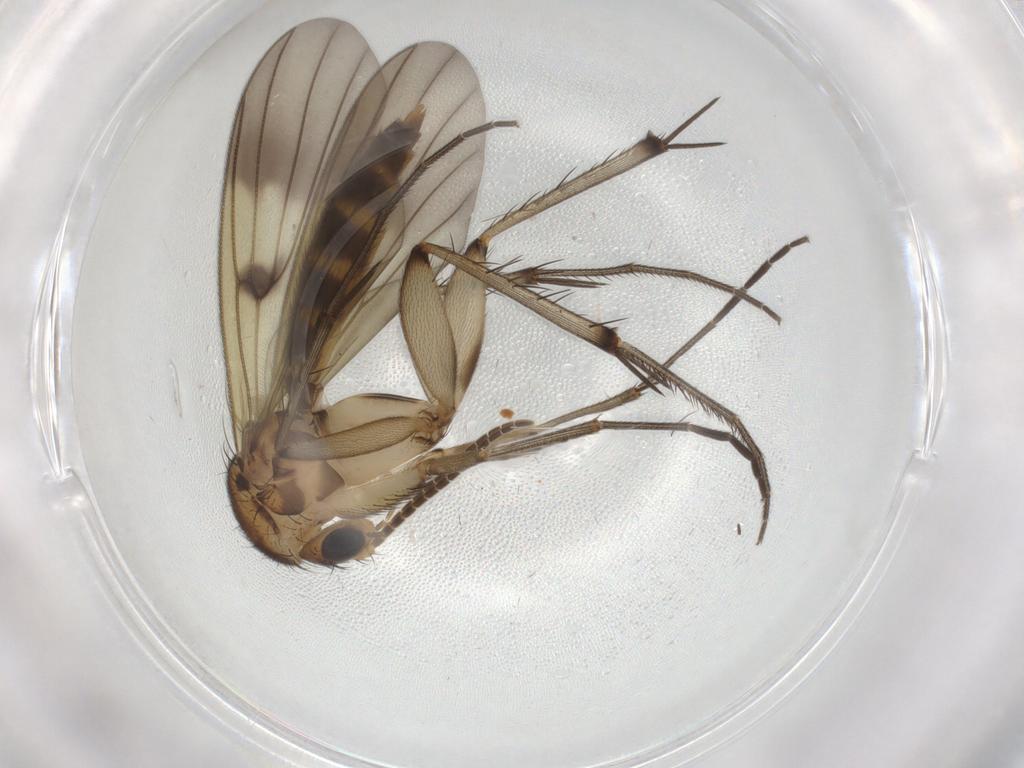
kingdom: Animalia
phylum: Arthropoda
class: Insecta
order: Diptera
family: Mycetophilidae
